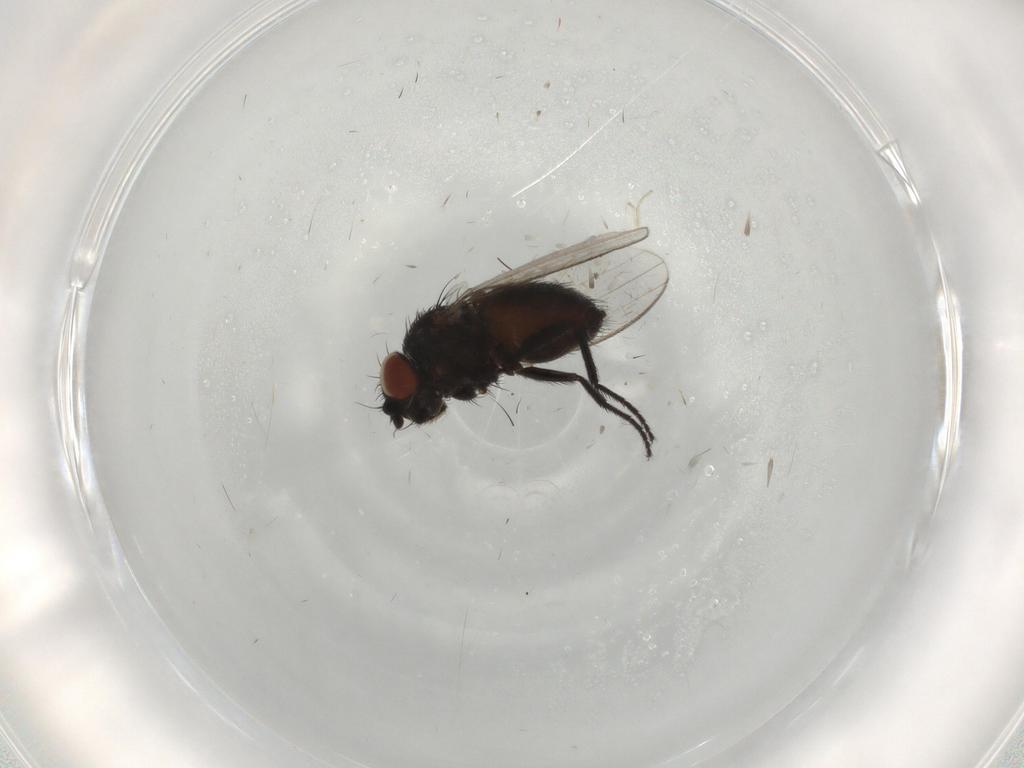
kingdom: Animalia
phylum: Arthropoda
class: Insecta
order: Diptera
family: Milichiidae
